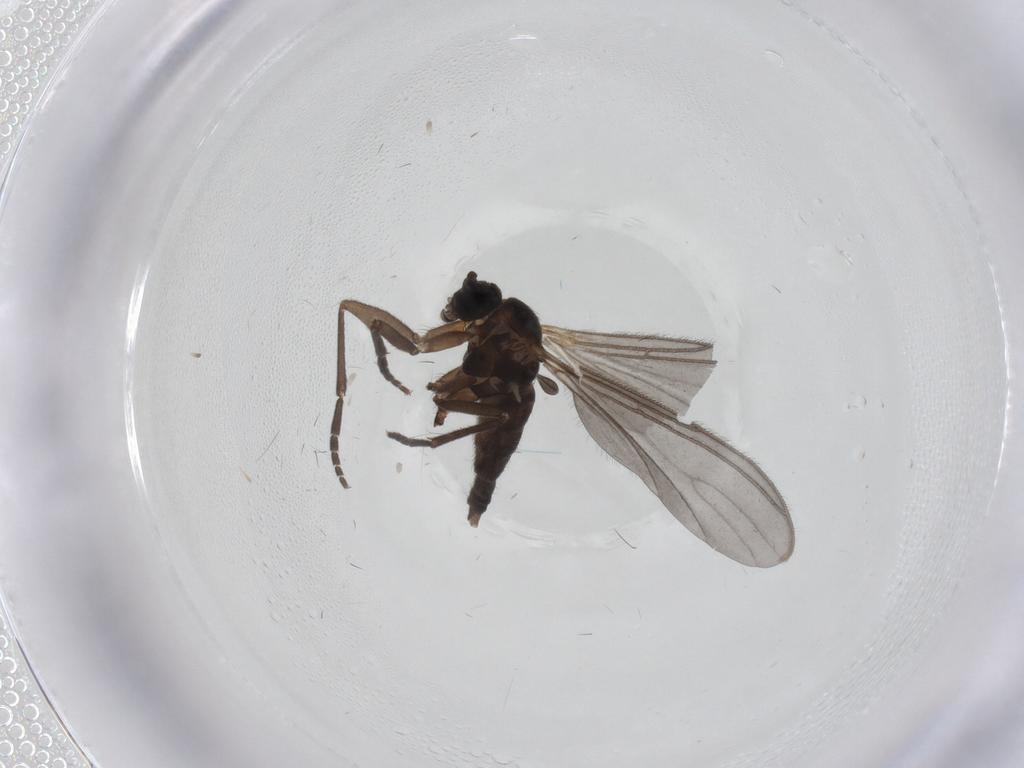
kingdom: Animalia
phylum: Arthropoda
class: Insecta
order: Diptera
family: Sciaridae
